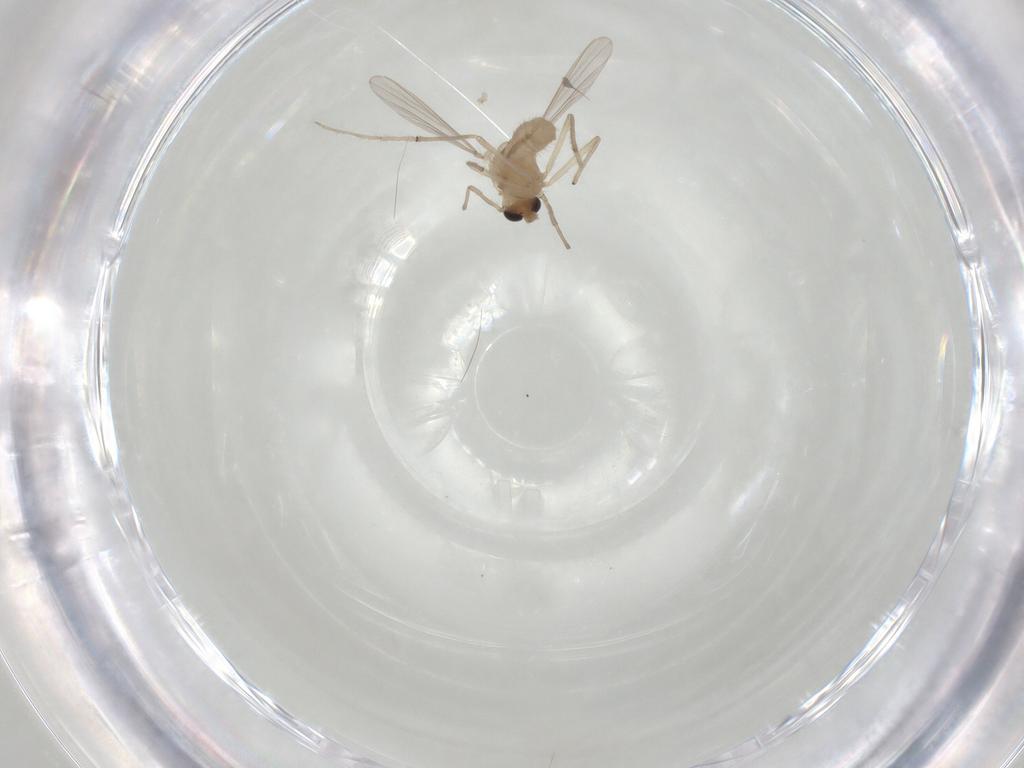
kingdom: Animalia
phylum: Arthropoda
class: Insecta
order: Diptera
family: Chironomidae
